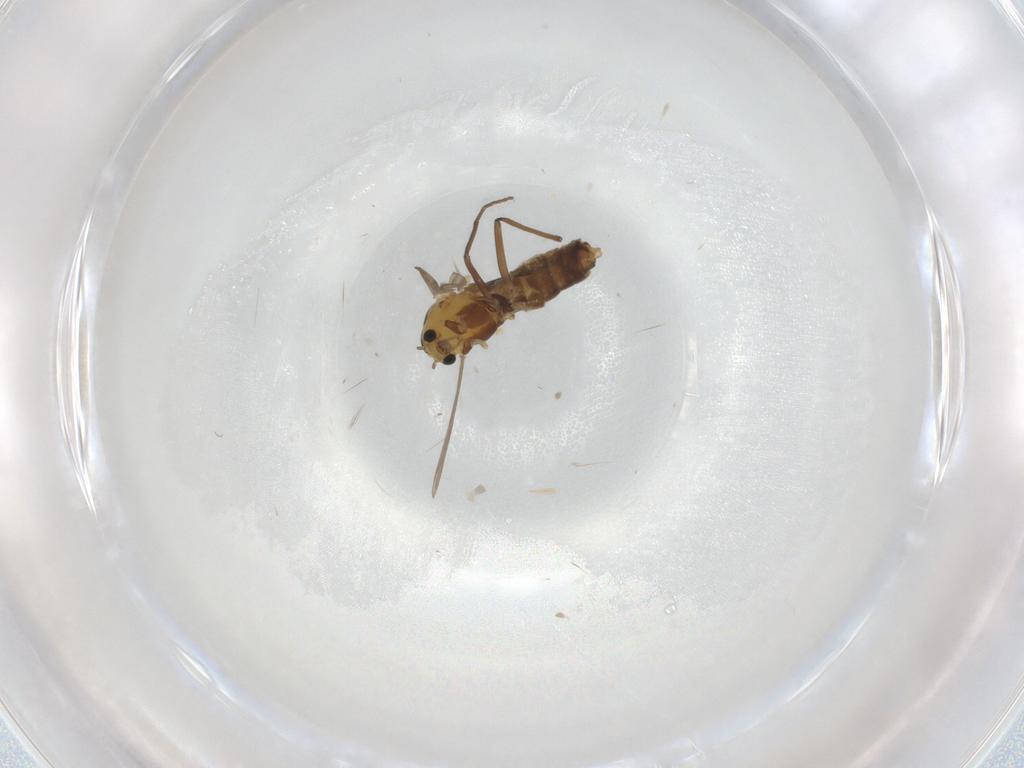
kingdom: Animalia
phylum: Arthropoda
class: Insecta
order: Diptera
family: Chironomidae
